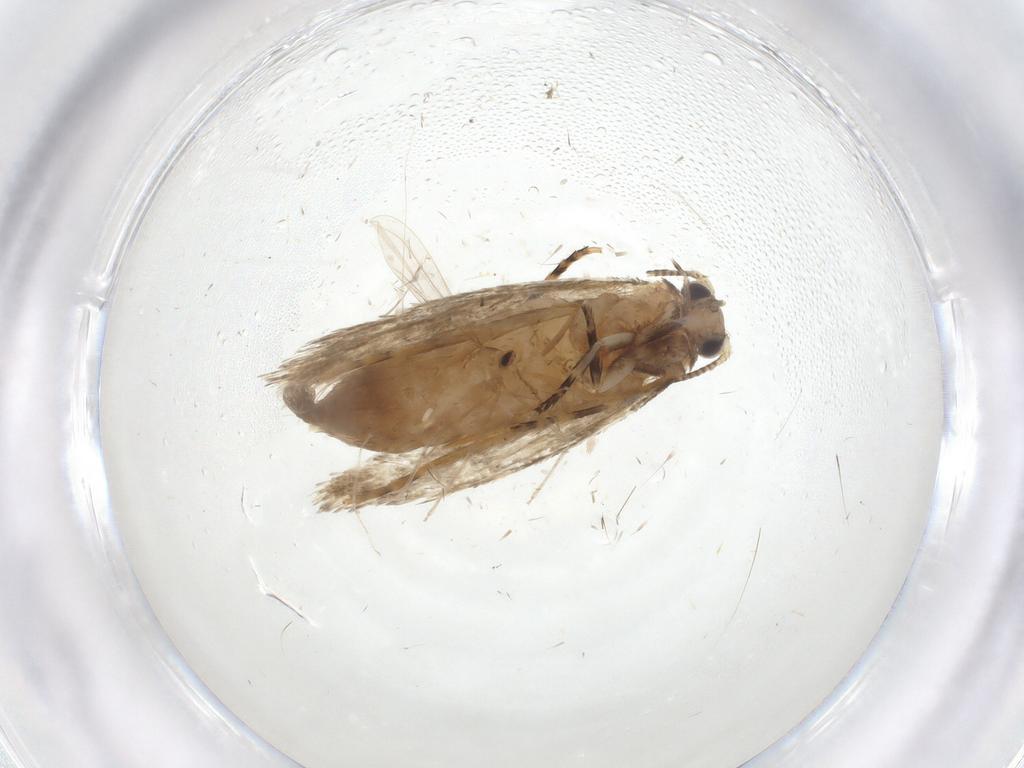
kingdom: Animalia
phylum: Arthropoda
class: Insecta
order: Lepidoptera
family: Tineidae
